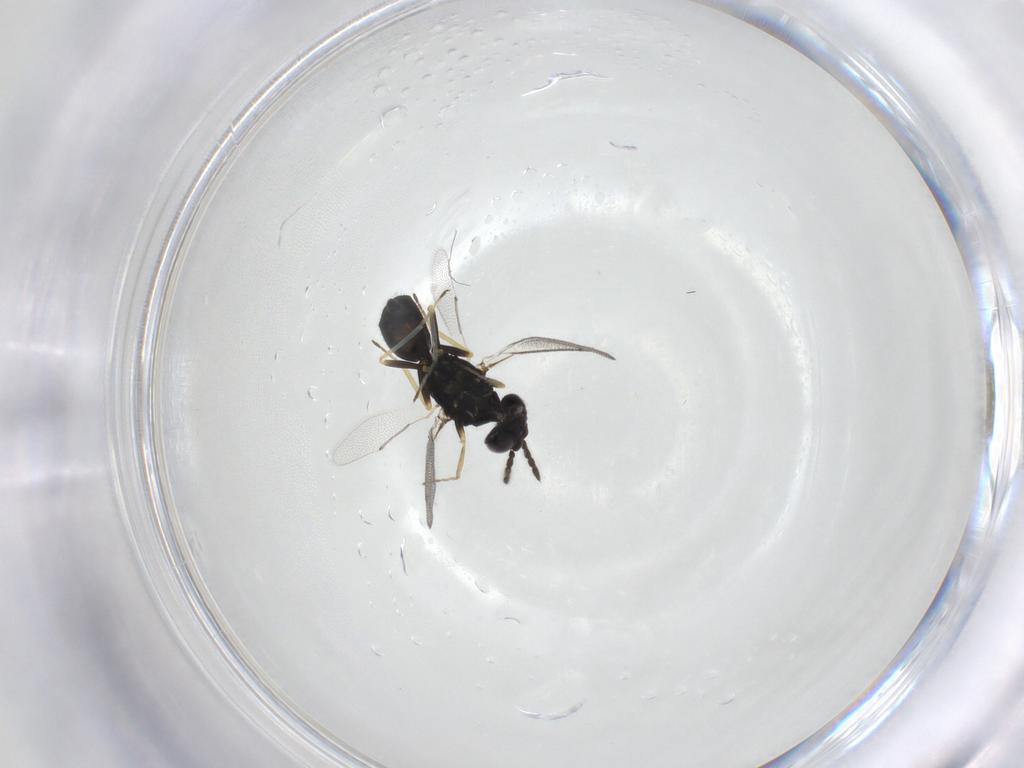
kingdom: Animalia
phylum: Arthropoda
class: Insecta
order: Hymenoptera
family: Eulophidae
